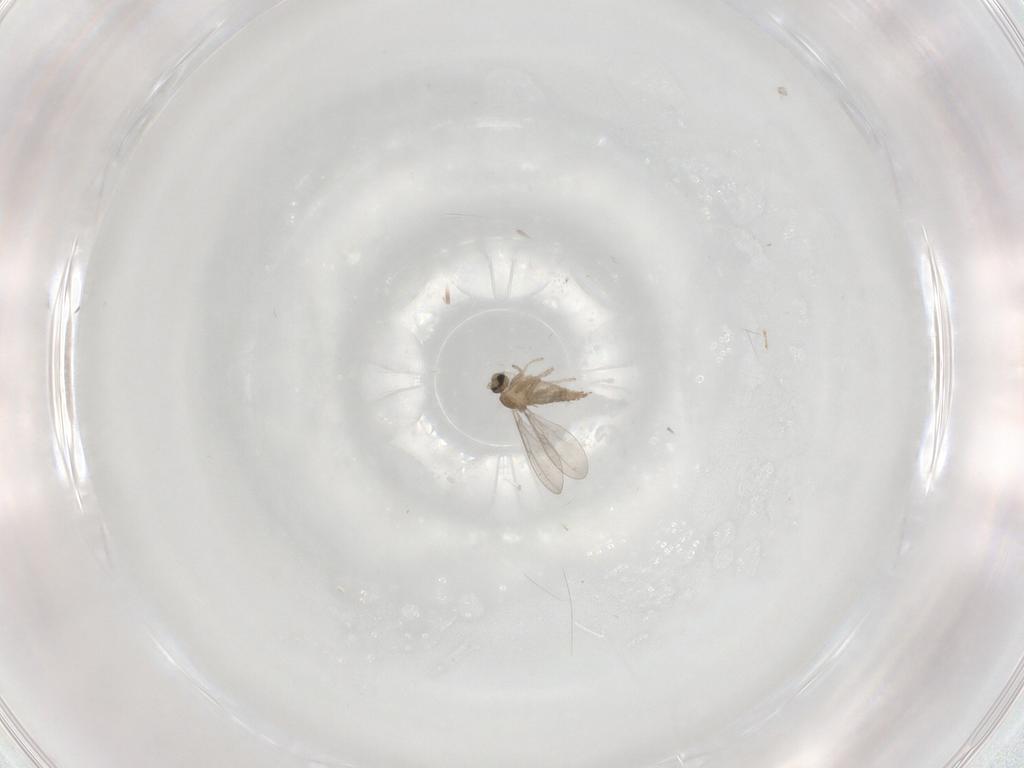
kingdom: Animalia
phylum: Arthropoda
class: Insecta
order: Diptera
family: Cecidomyiidae
